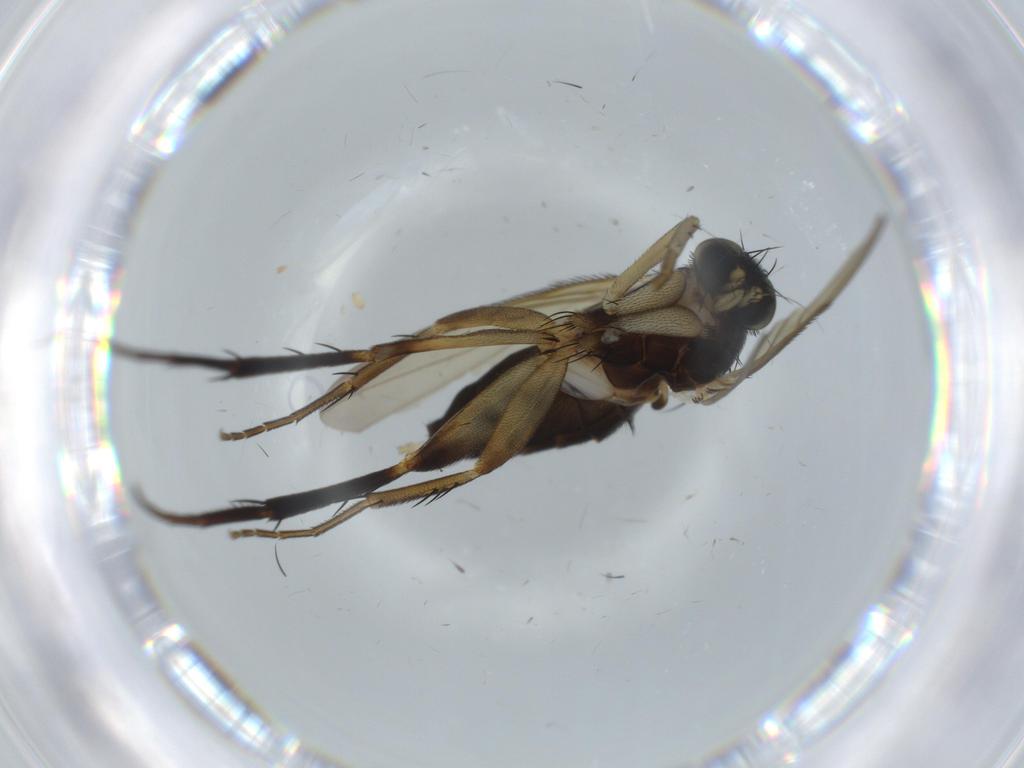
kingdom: Animalia
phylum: Arthropoda
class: Insecta
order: Diptera
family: Phoridae
